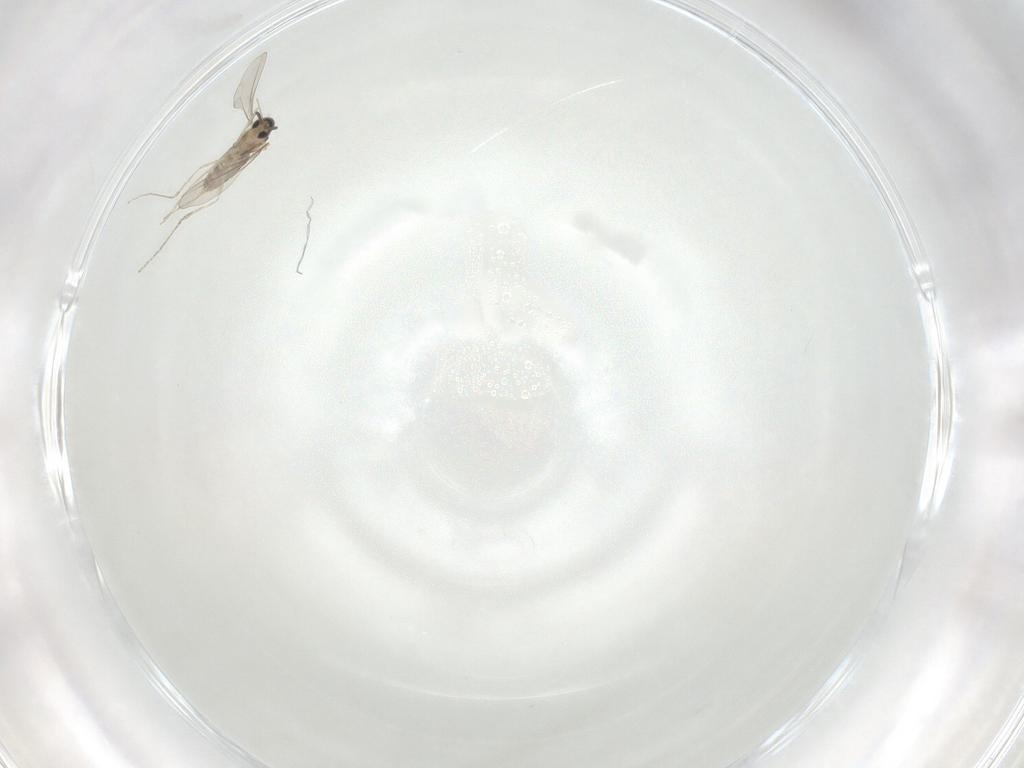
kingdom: Animalia
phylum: Arthropoda
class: Insecta
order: Diptera
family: Cecidomyiidae
